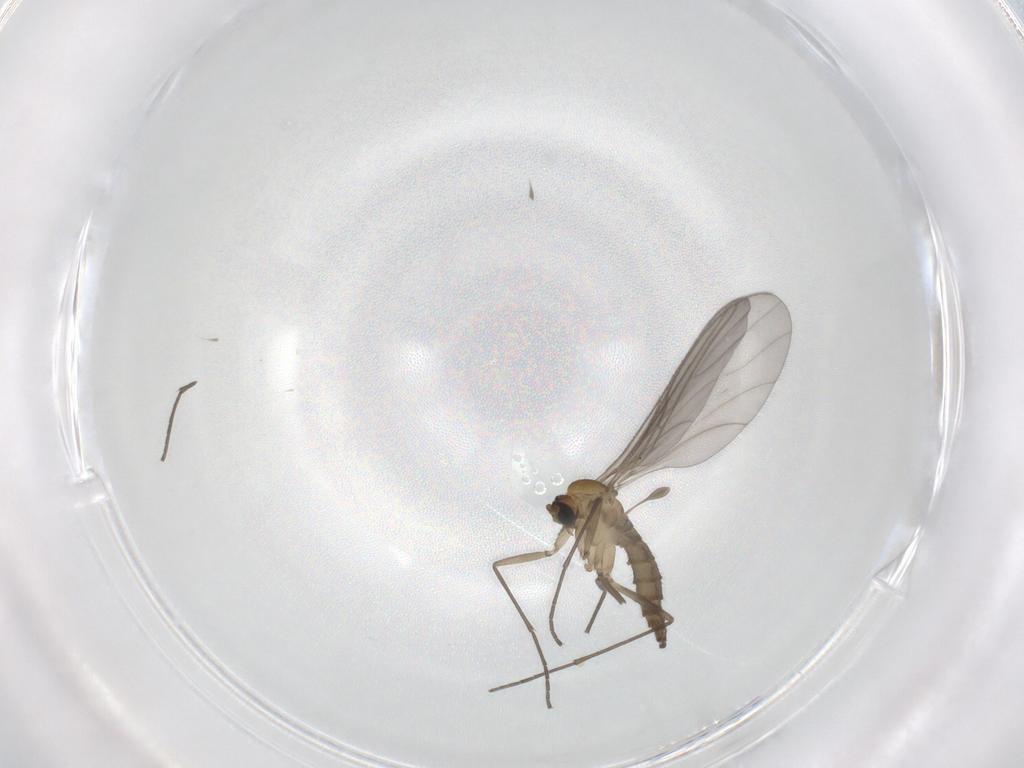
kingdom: Animalia
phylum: Arthropoda
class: Insecta
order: Diptera
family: Sciaridae
